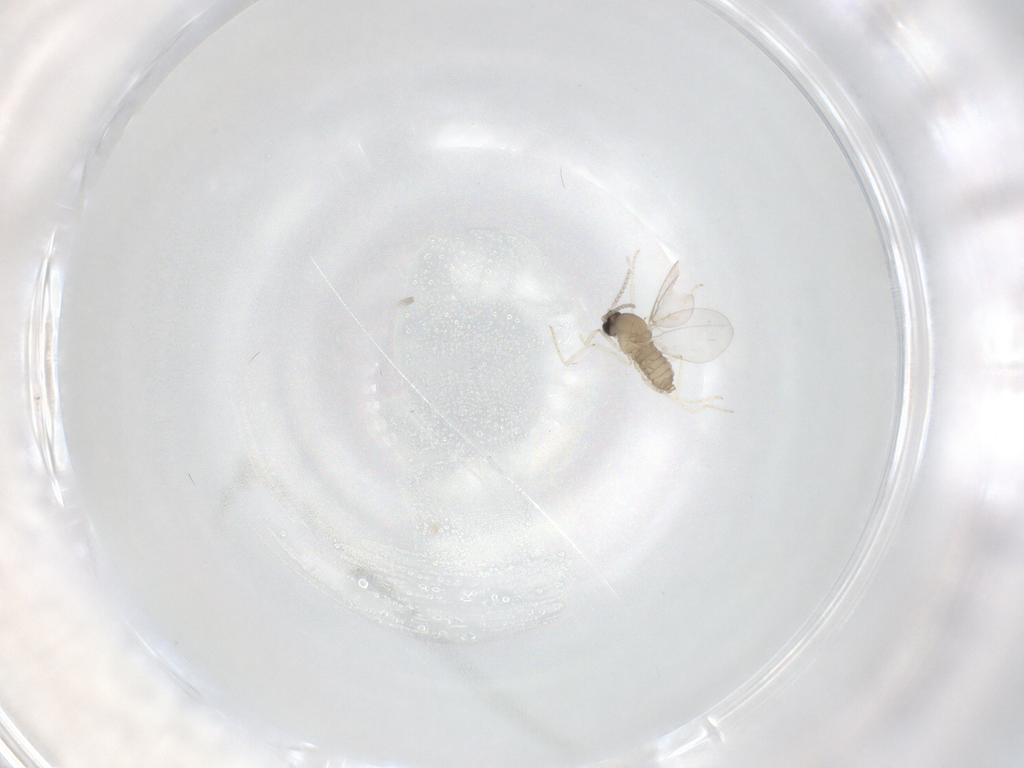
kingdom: Animalia
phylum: Arthropoda
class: Insecta
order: Diptera
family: Cecidomyiidae
